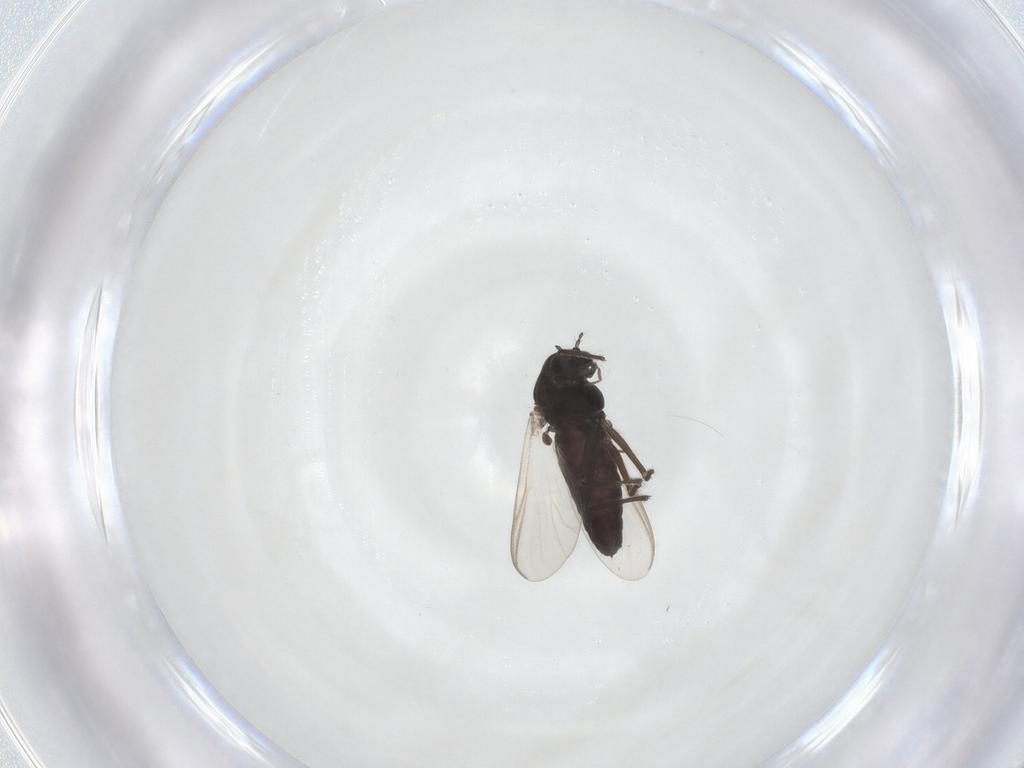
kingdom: Animalia
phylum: Arthropoda
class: Insecta
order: Diptera
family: Chironomidae
